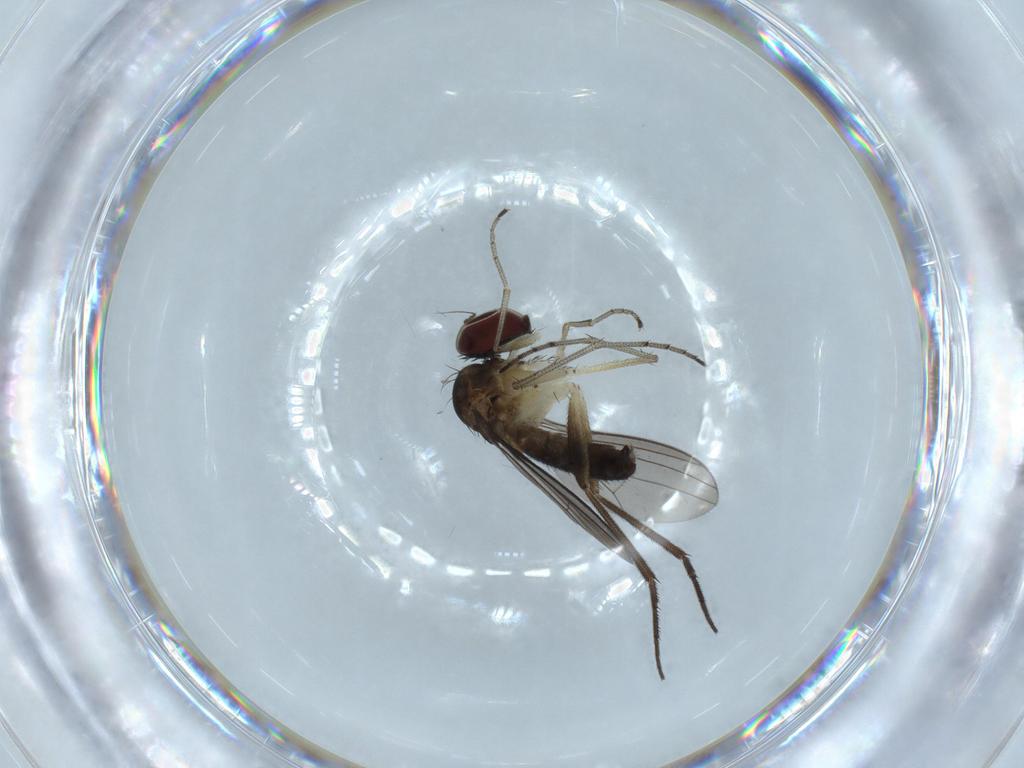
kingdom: Animalia
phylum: Arthropoda
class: Insecta
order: Diptera
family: Dolichopodidae
